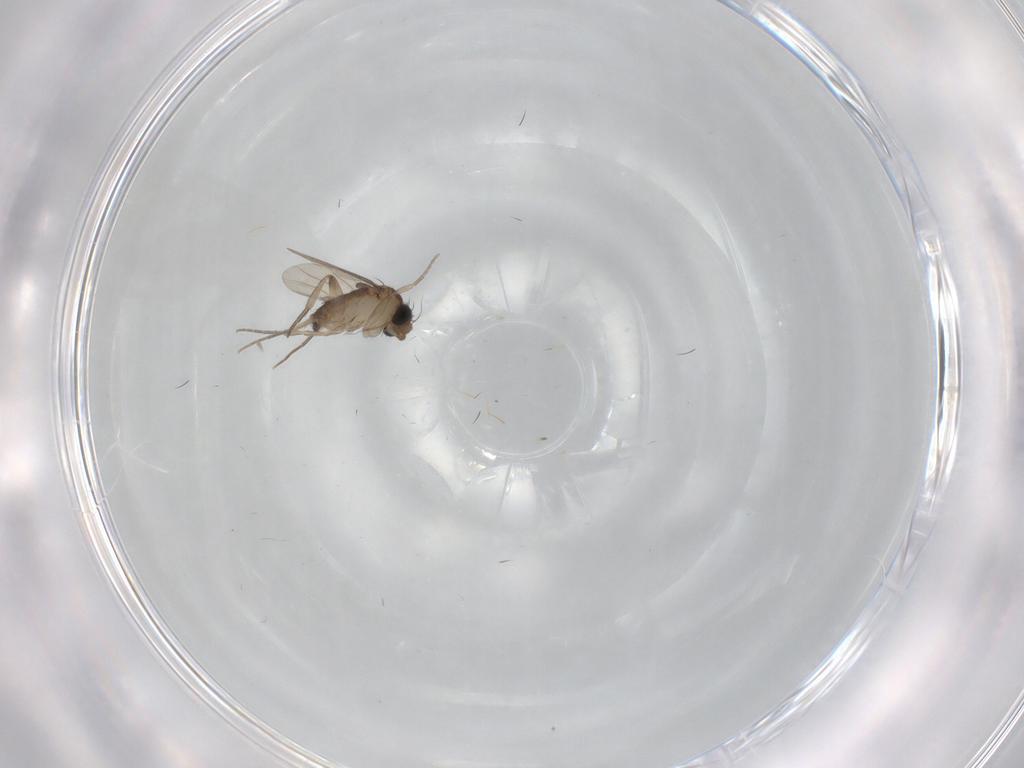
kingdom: Animalia
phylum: Arthropoda
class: Insecta
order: Diptera
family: Phoridae
